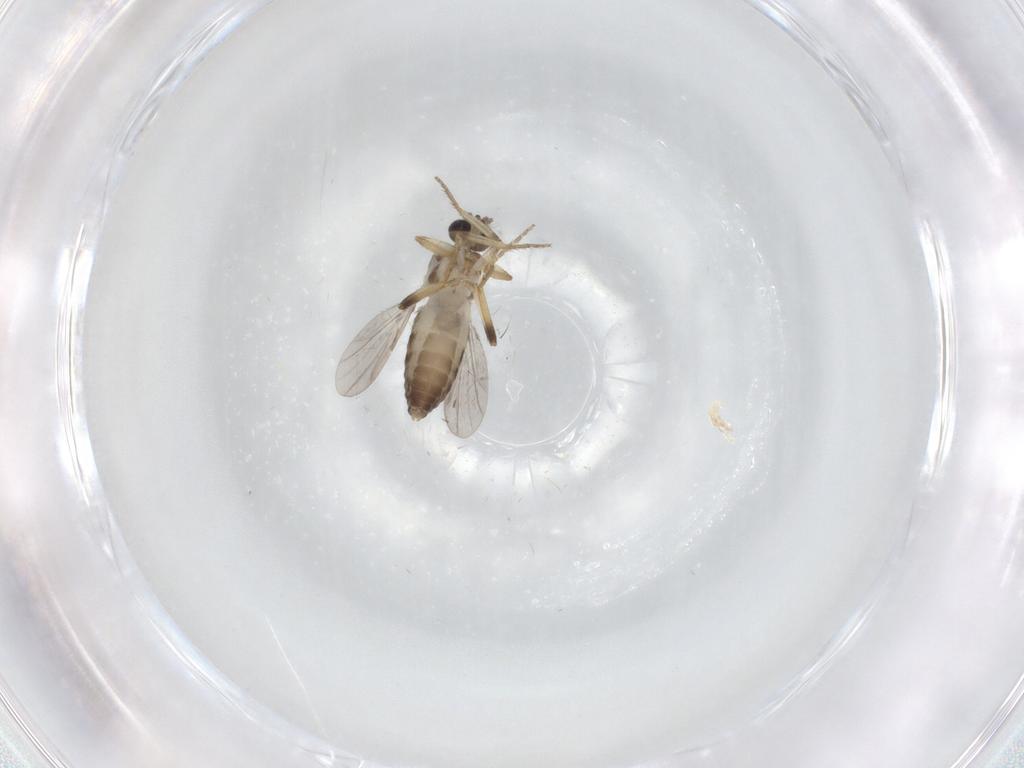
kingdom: Animalia
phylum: Arthropoda
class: Insecta
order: Diptera
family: Ceratopogonidae
